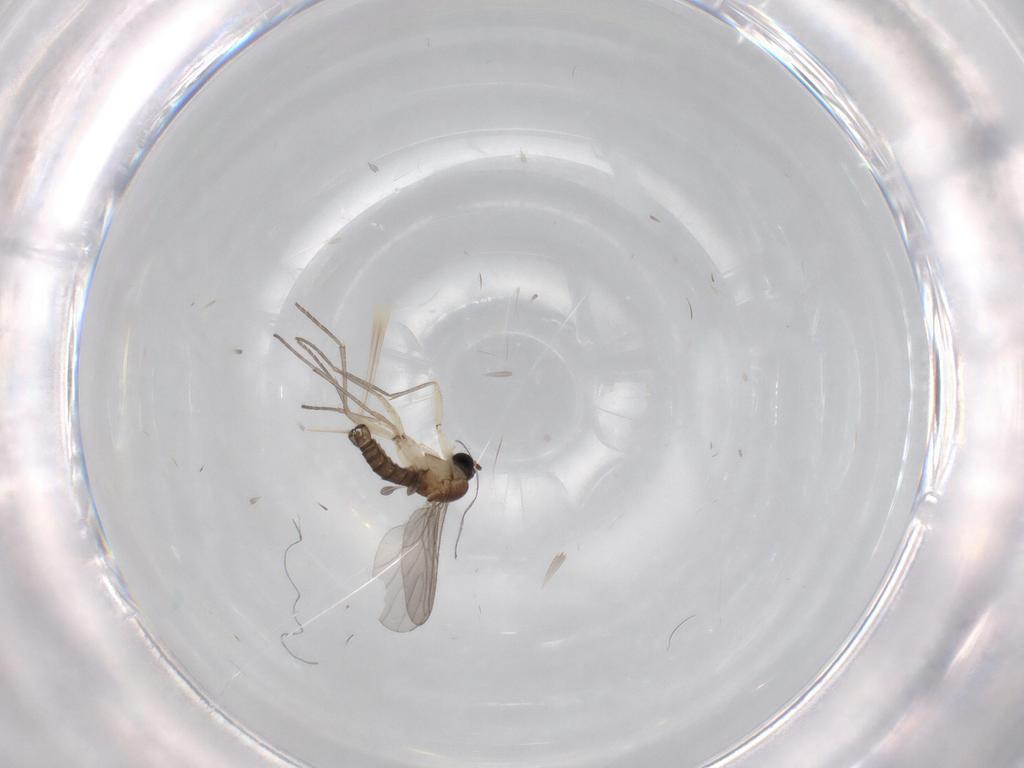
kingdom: Animalia
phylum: Arthropoda
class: Insecta
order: Diptera
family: Sciaridae
